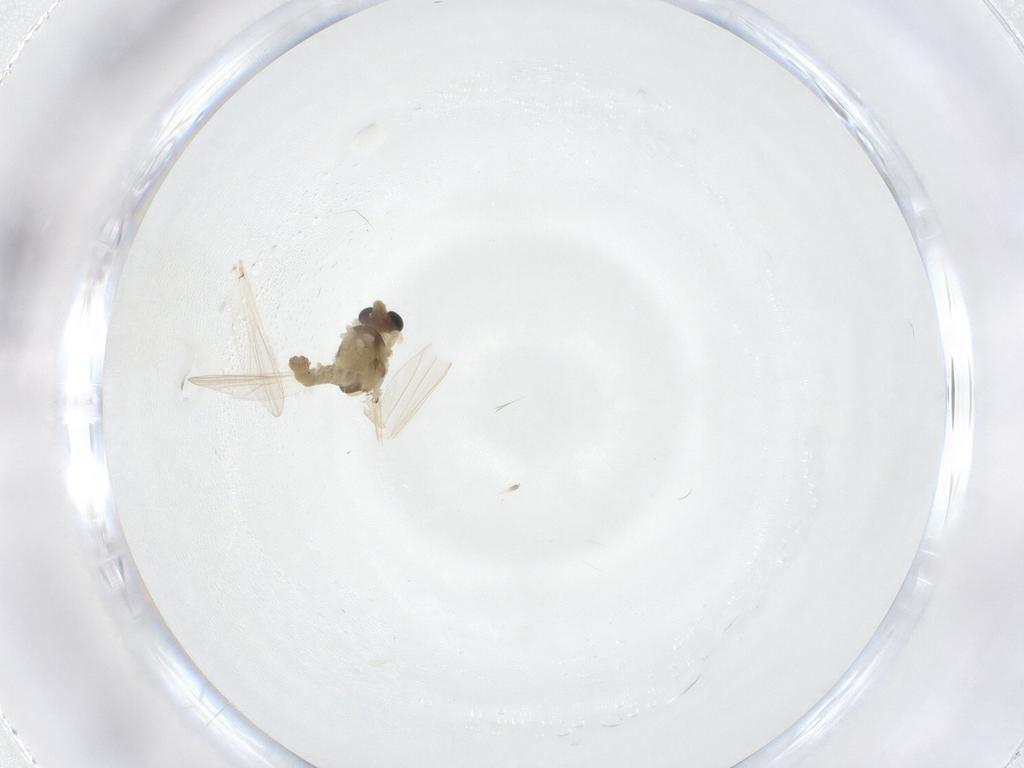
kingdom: Animalia
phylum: Arthropoda
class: Insecta
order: Diptera
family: Chironomidae
